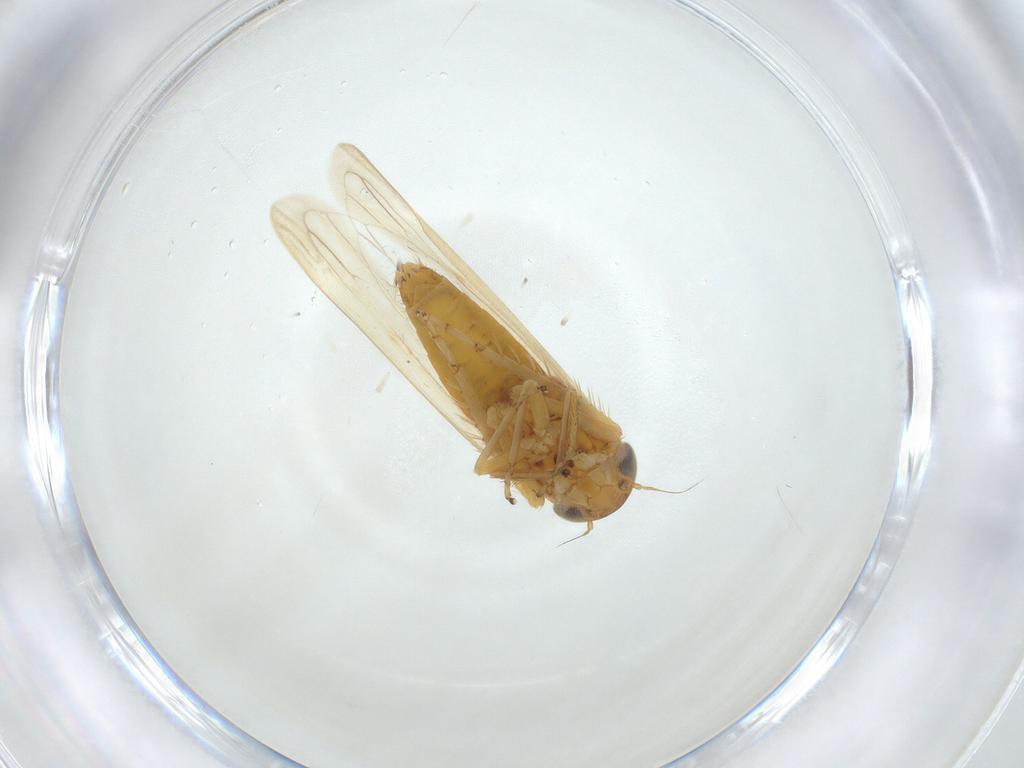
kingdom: Animalia
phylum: Arthropoda
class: Insecta
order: Hemiptera
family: Cicadellidae
